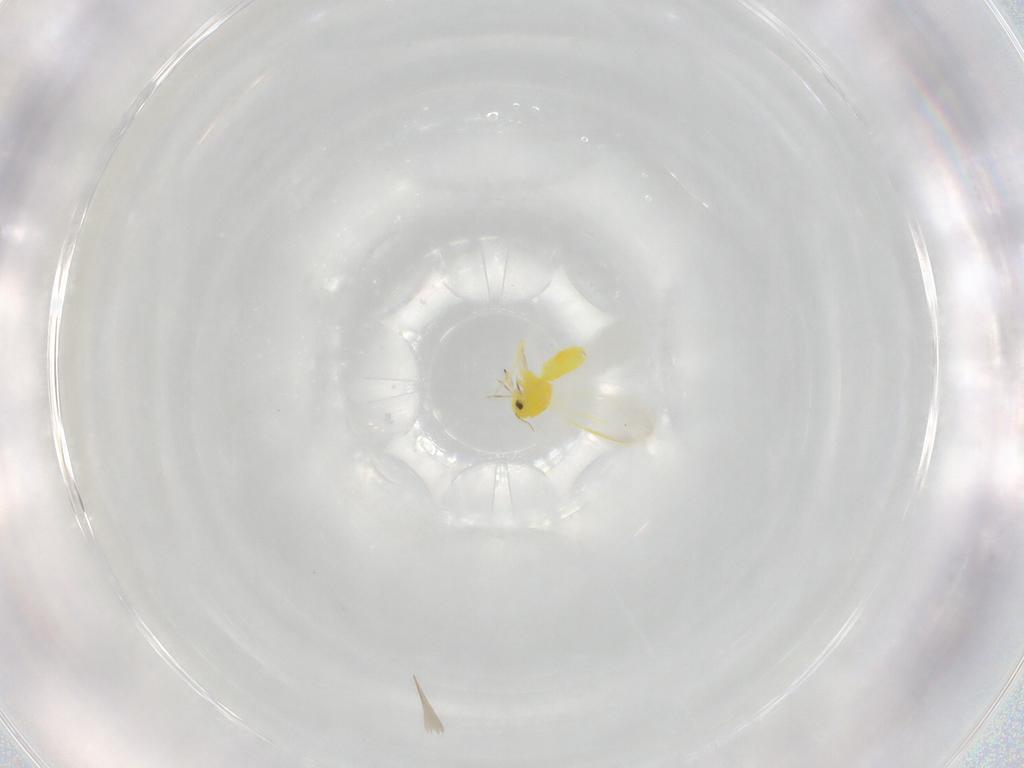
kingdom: Animalia
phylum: Arthropoda
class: Insecta
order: Hemiptera
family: Aleyrodidae
